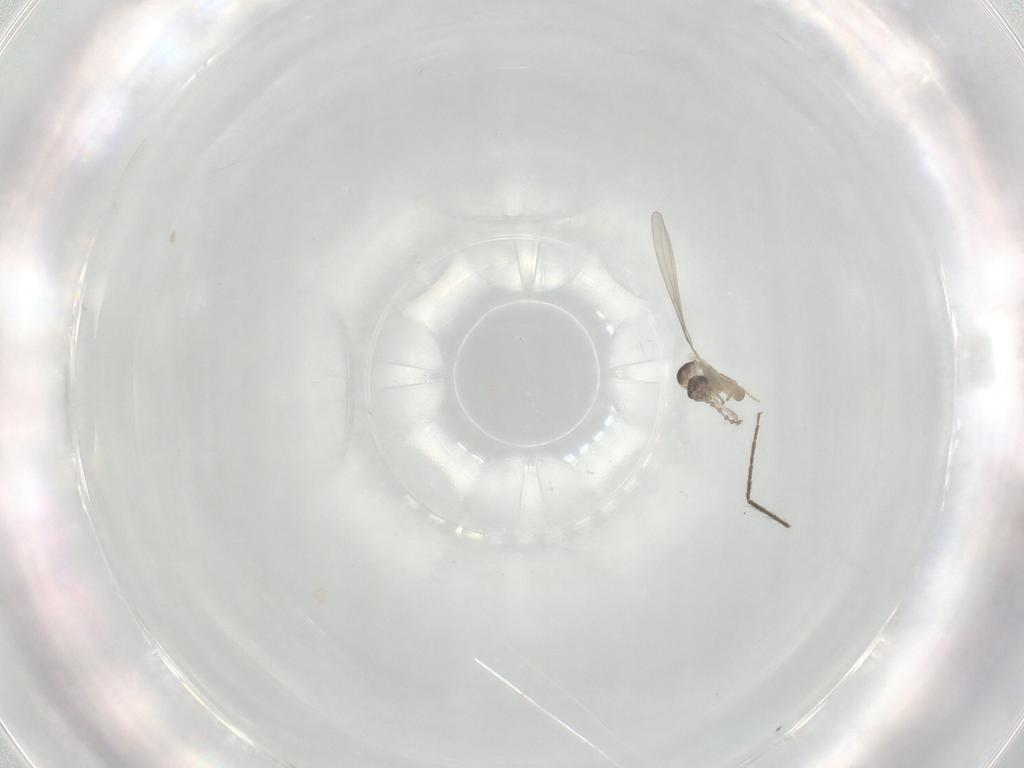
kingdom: Animalia
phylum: Arthropoda
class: Insecta
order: Diptera
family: Cecidomyiidae
